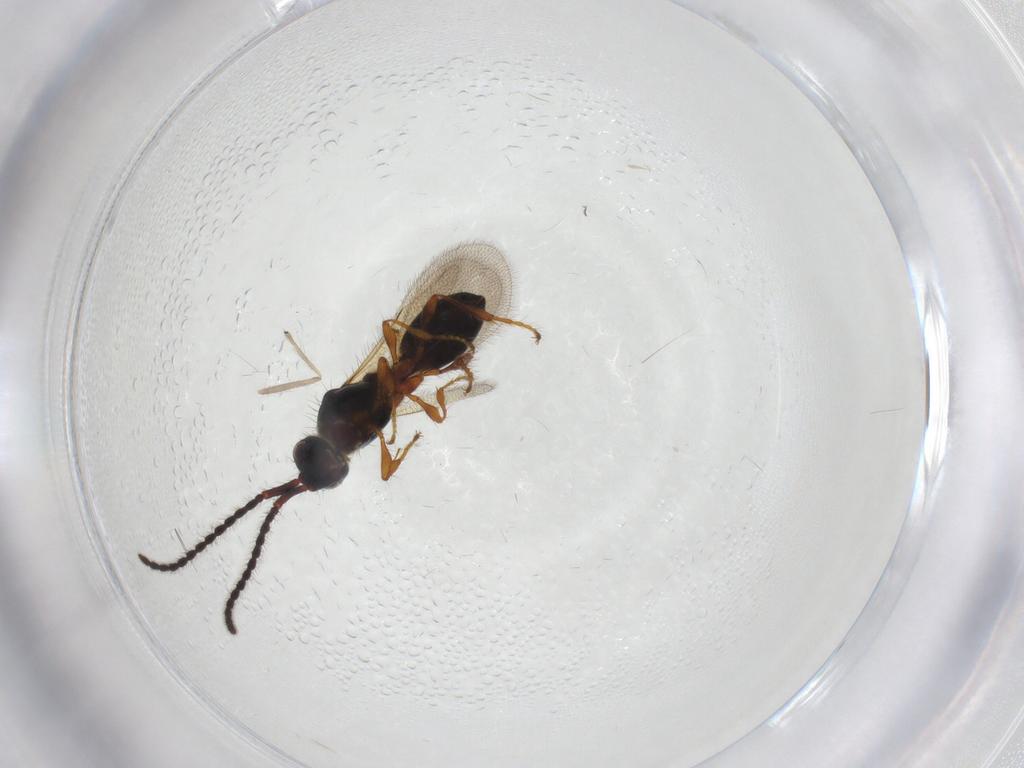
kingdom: Animalia
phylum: Arthropoda
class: Insecta
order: Hymenoptera
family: Diapriidae
